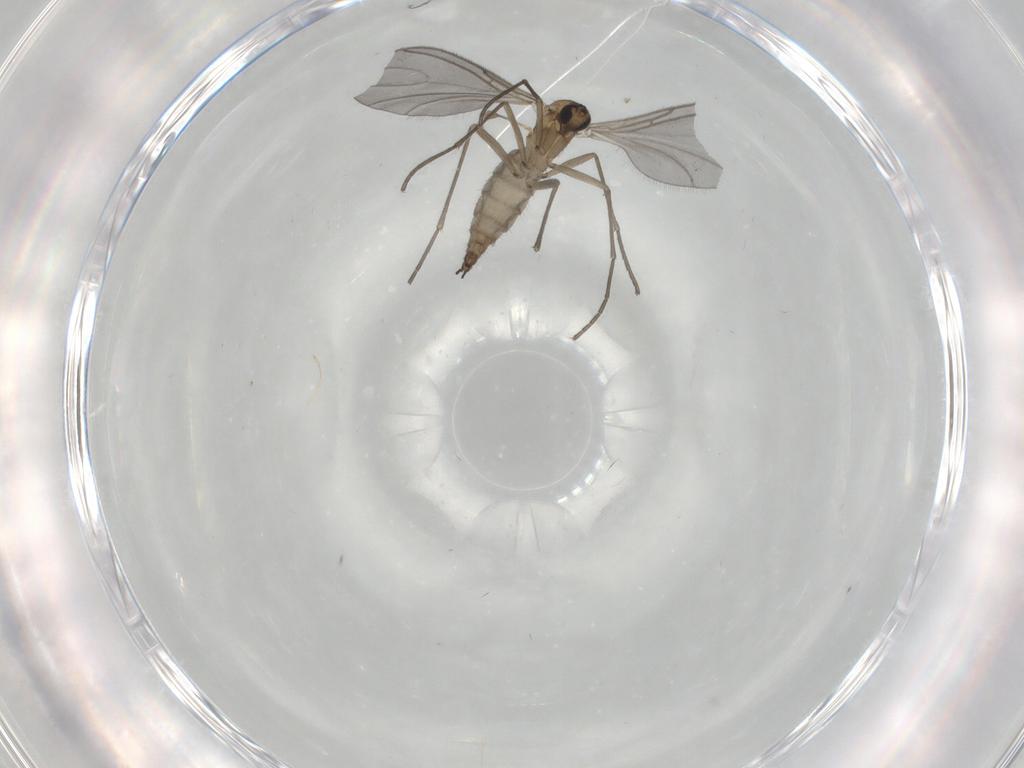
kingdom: Animalia
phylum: Arthropoda
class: Insecta
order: Diptera
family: Sciaridae
